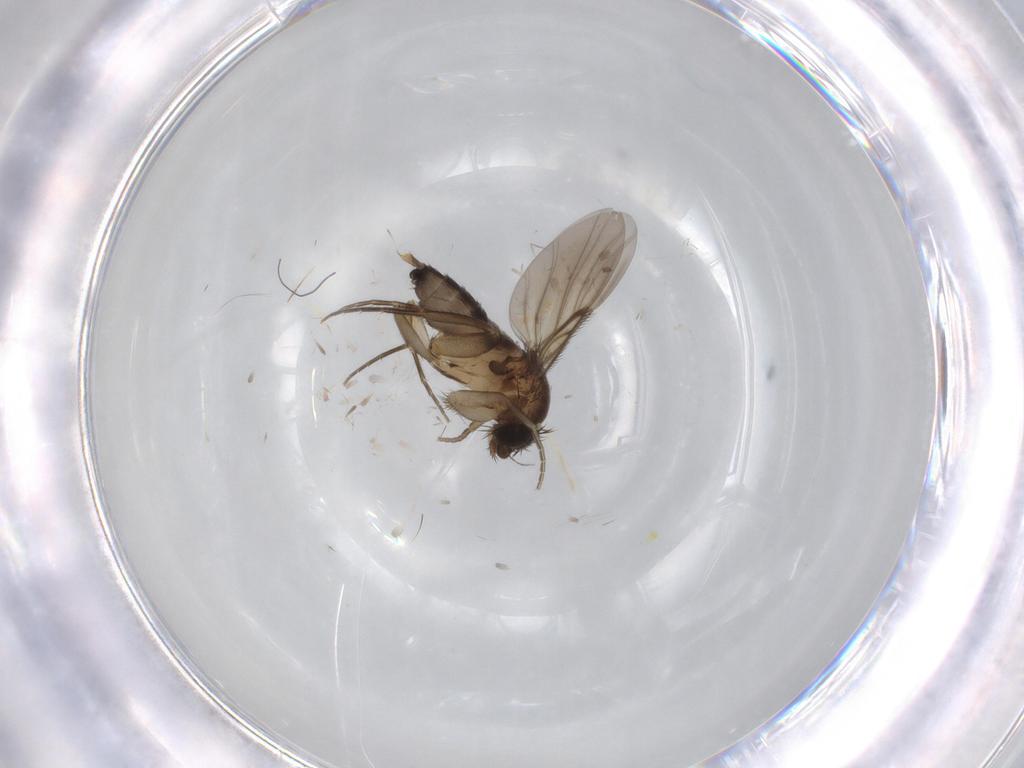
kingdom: Animalia
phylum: Arthropoda
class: Insecta
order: Diptera
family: Phoridae
